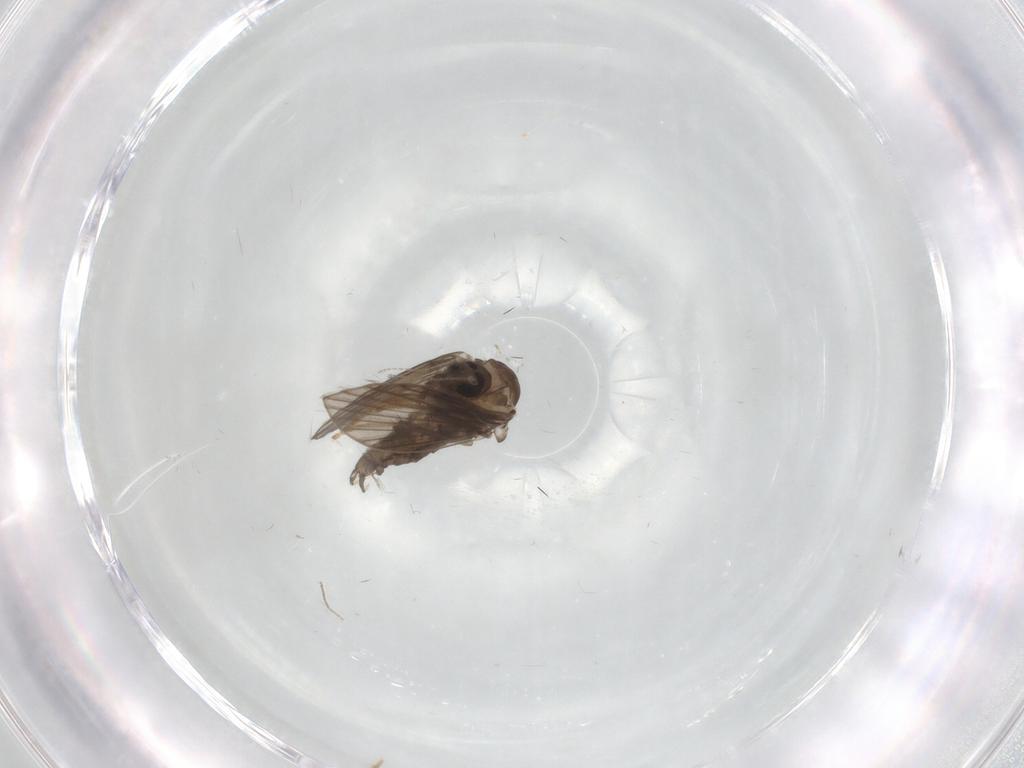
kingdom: Animalia
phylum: Arthropoda
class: Insecta
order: Diptera
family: Psychodidae
